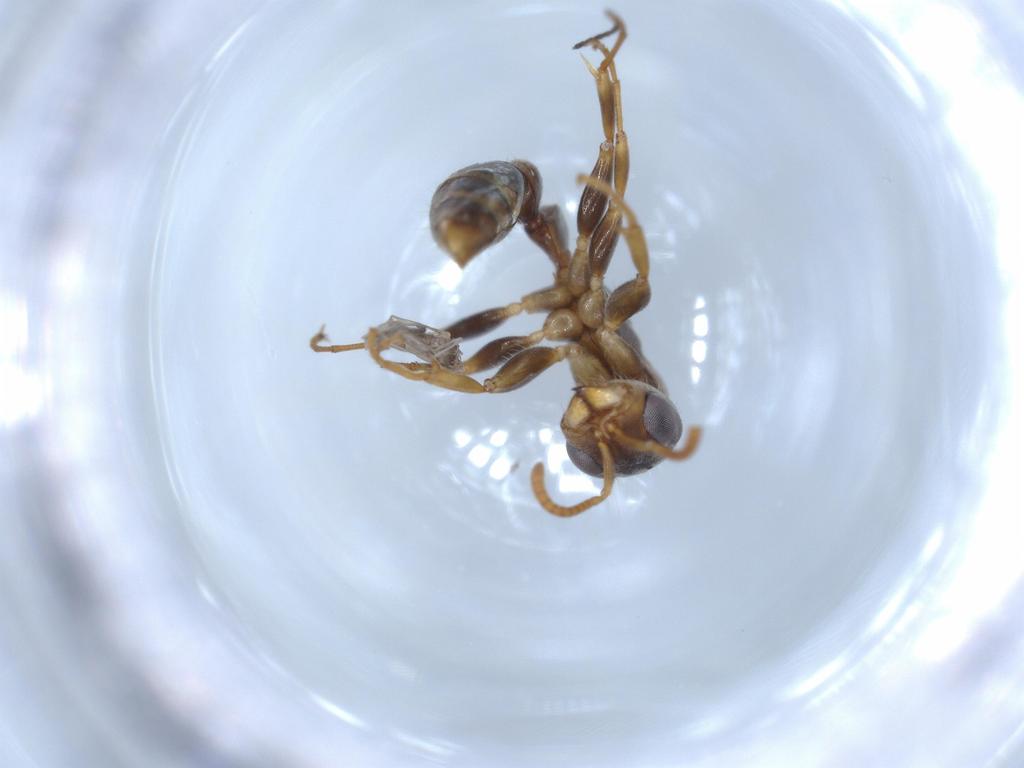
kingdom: Animalia
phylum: Arthropoda
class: Insecta
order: Hymenoptera
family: Formicidae
